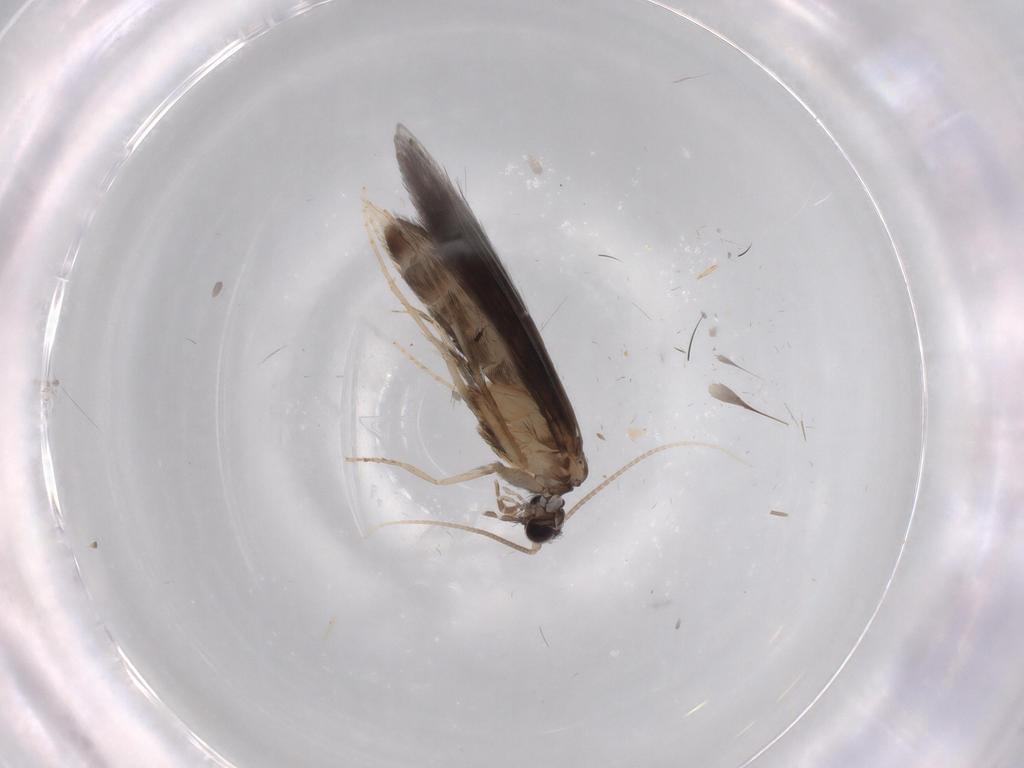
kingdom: Animalia
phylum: Arthropoda
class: Insecta
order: Trichoptera
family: Hydroptilidae
